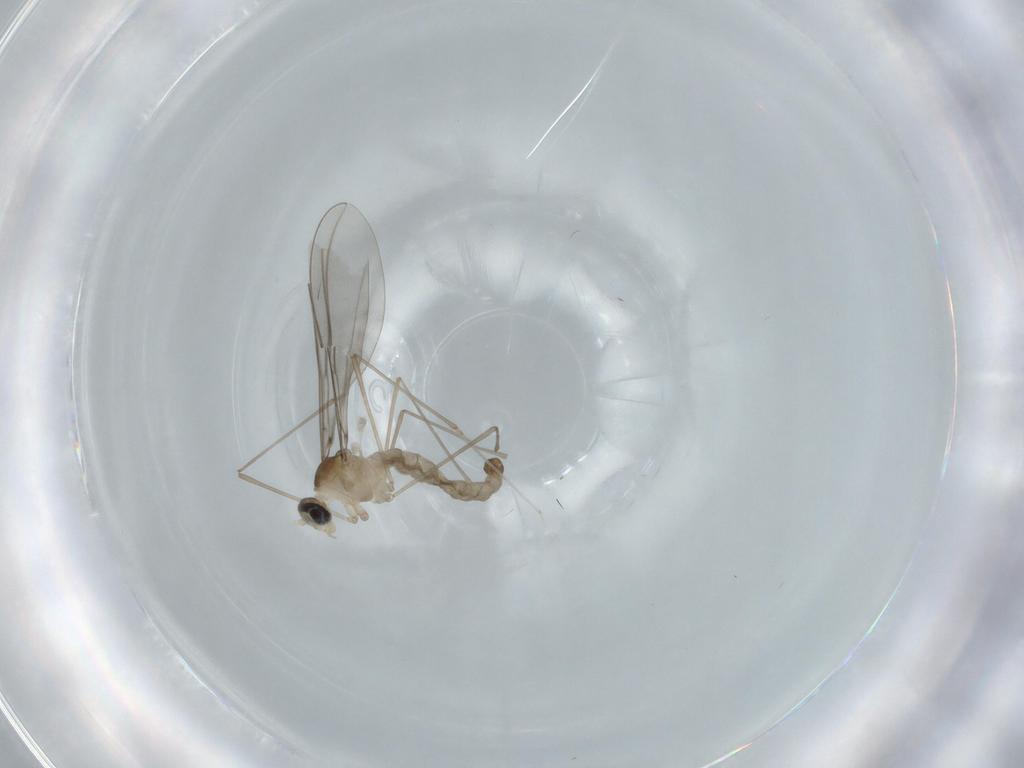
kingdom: Animalia
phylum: Arthropoda
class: Insecta
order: Diptera
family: Cecidomyiidae
